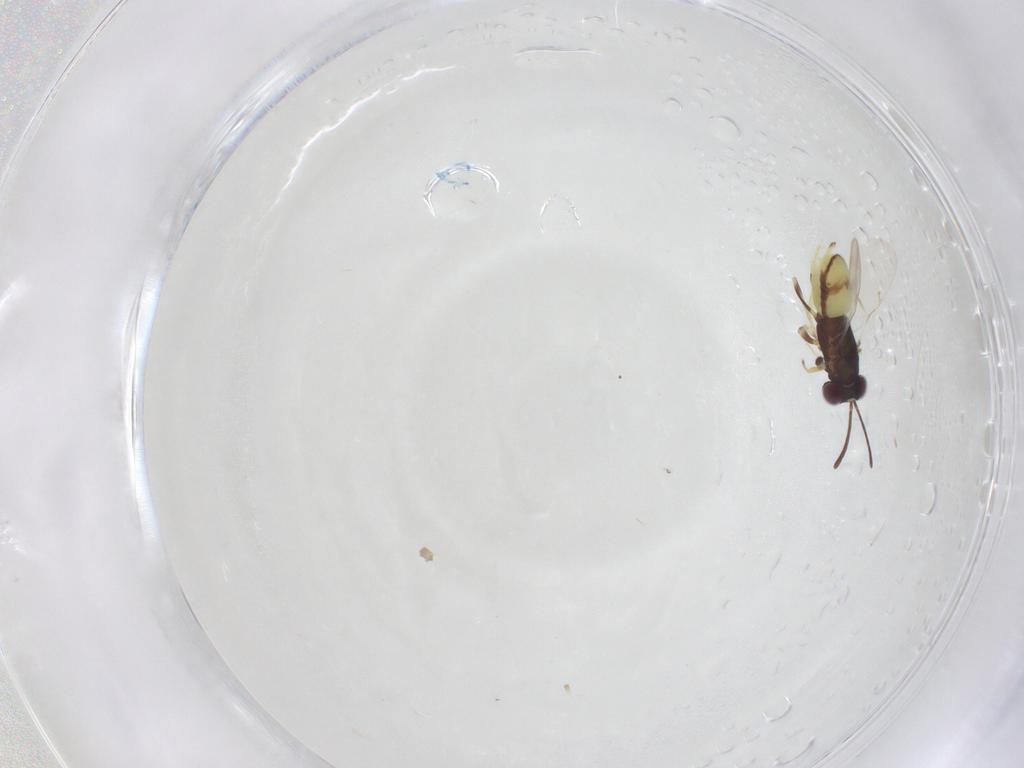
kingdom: Animalia
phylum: Arthropoda
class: Insecta
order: Hymenoptera
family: Encyrtidae
